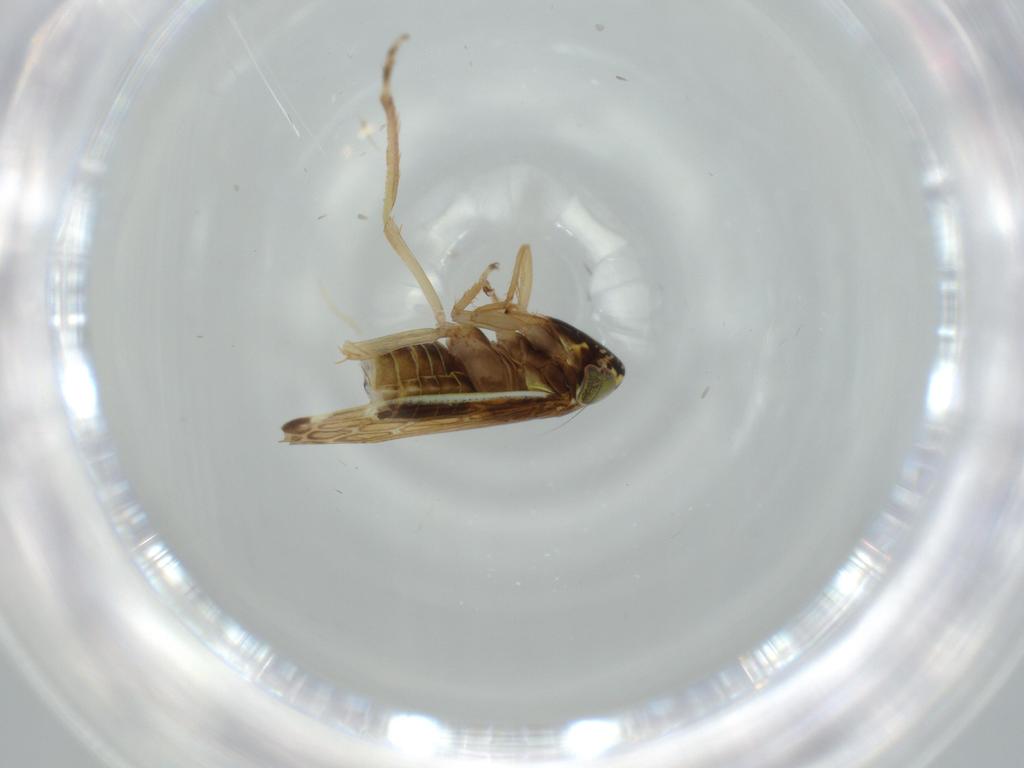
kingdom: Animalia
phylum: Arthropoda
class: Insecta
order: Hemiptera
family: Cicadellidae
